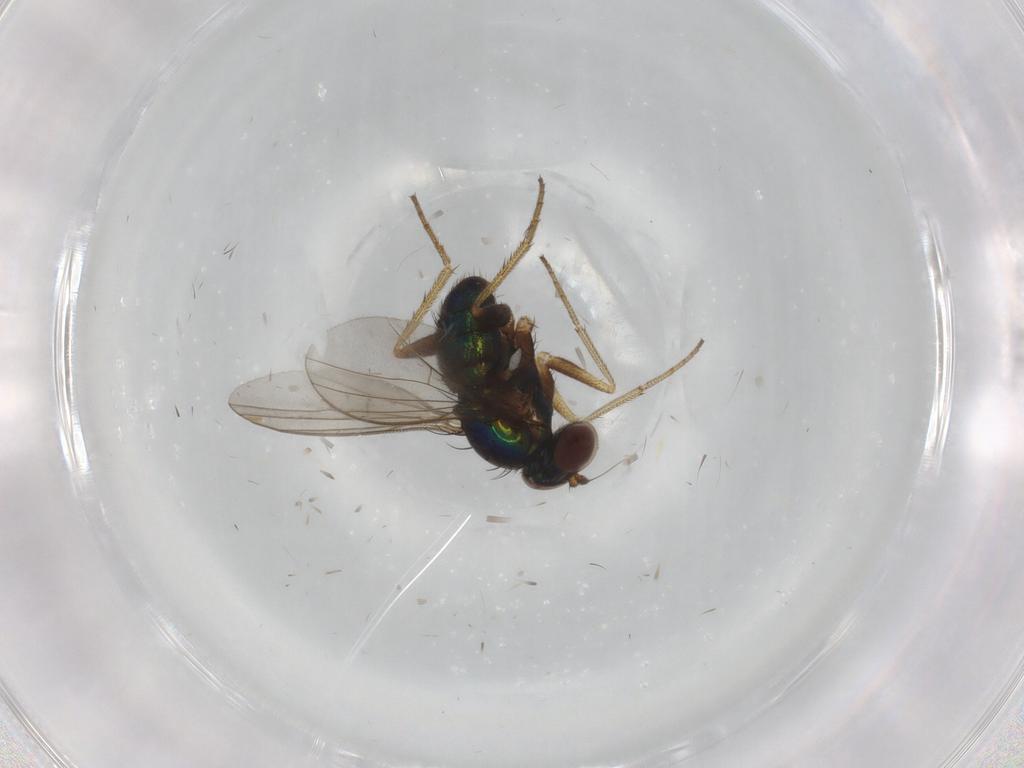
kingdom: Animalia
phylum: Arthropoda
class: Insecta
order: Diptera
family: Dolichopodidae
